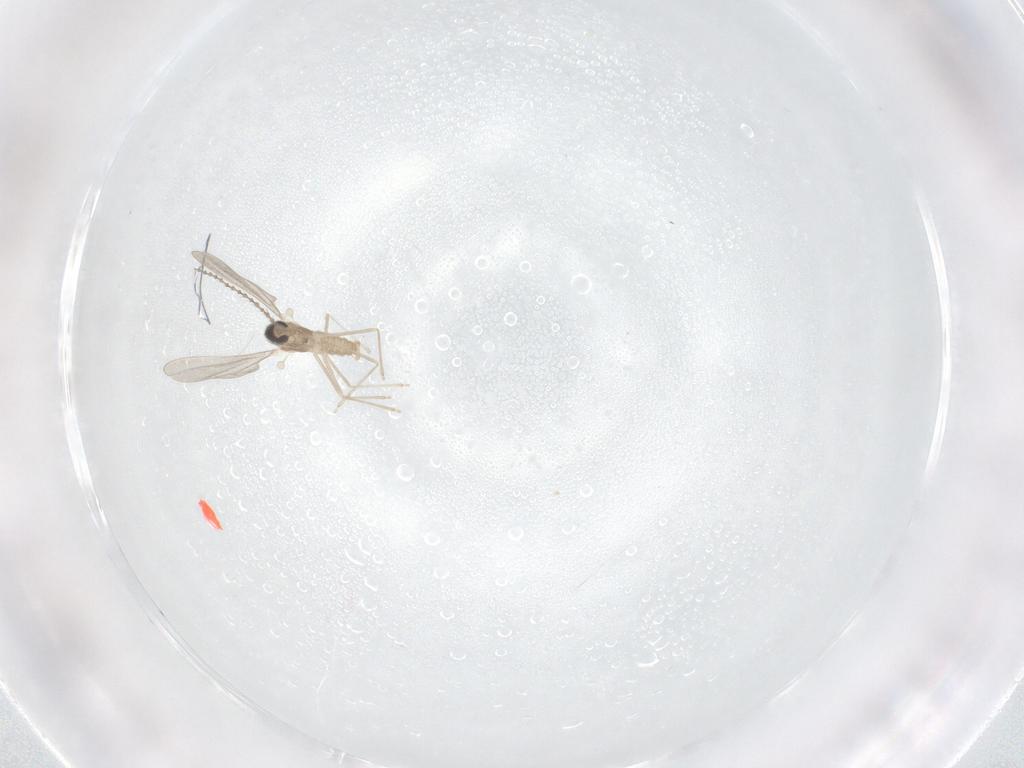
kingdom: Animalia
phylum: Arthropoda
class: Insecta
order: Diptera
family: Cecidomyiidae
